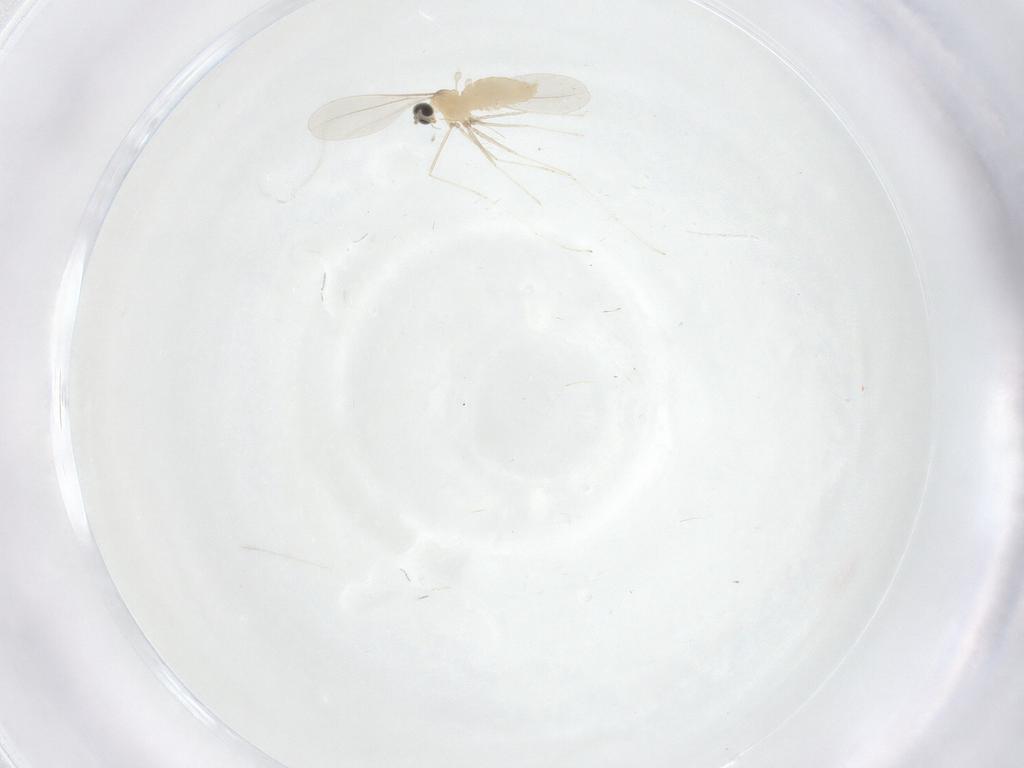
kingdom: Animalia
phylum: Arthropoda
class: Insecta
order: Diptera
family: Cecidomyiidae
